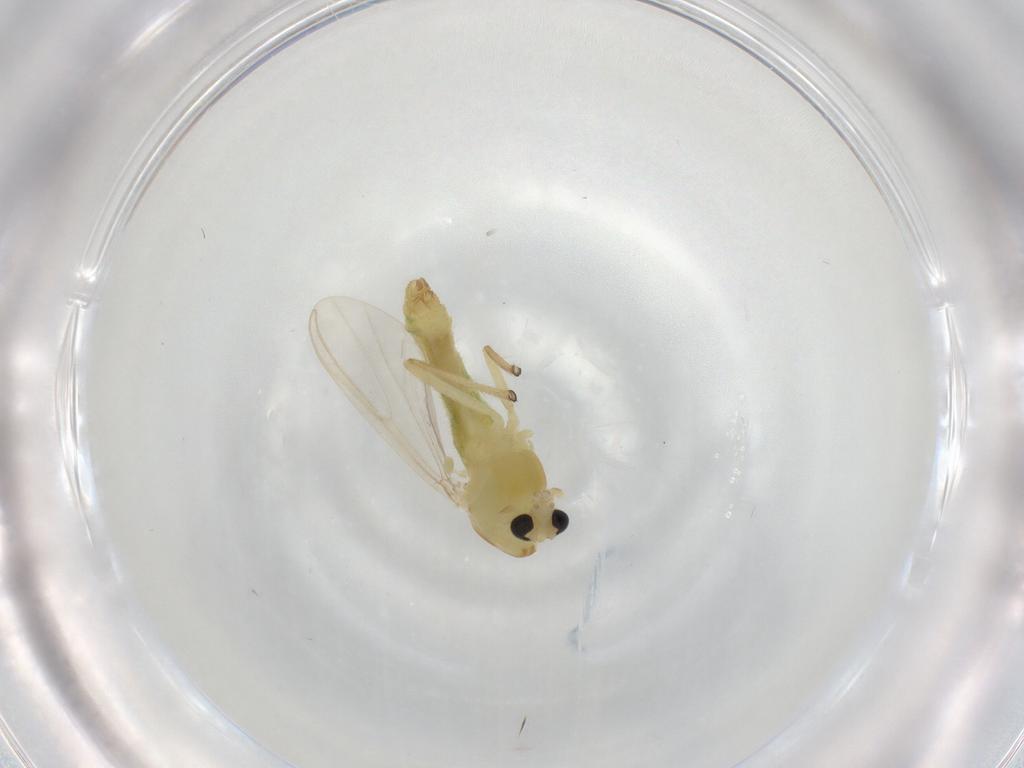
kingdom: Animalia
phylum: Arthropoda
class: Insecta
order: Diptera
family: Chironomidae
